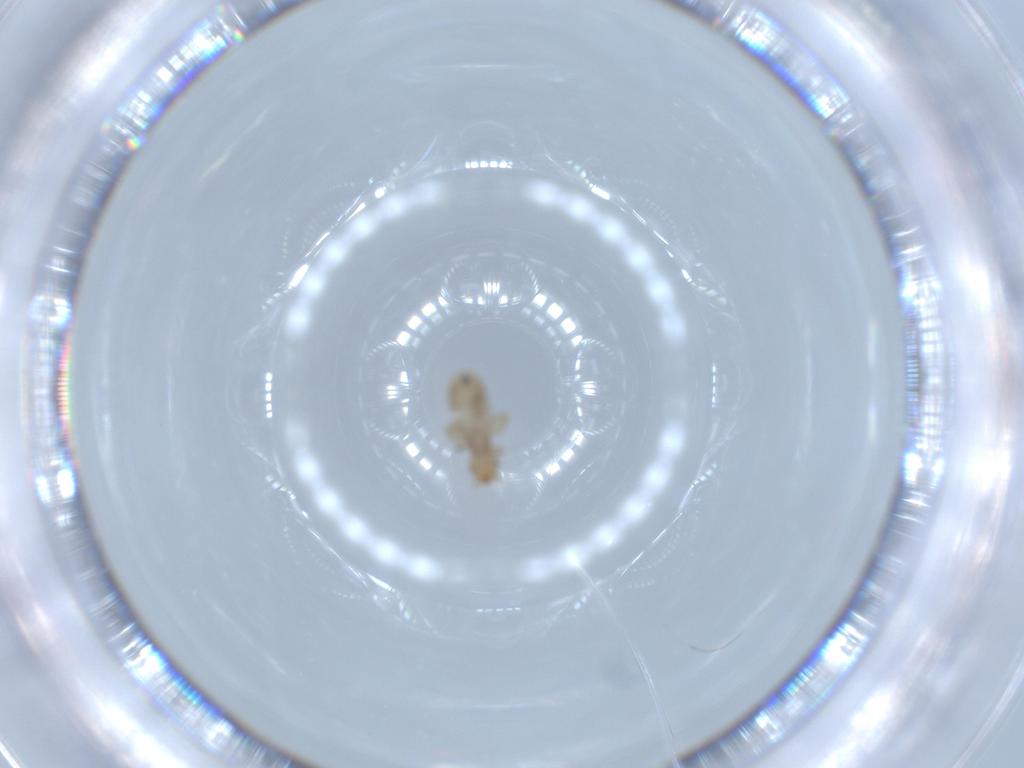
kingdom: Animalia
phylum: Arthropoda
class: Insecta
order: Psocodea
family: Liposcelididae
